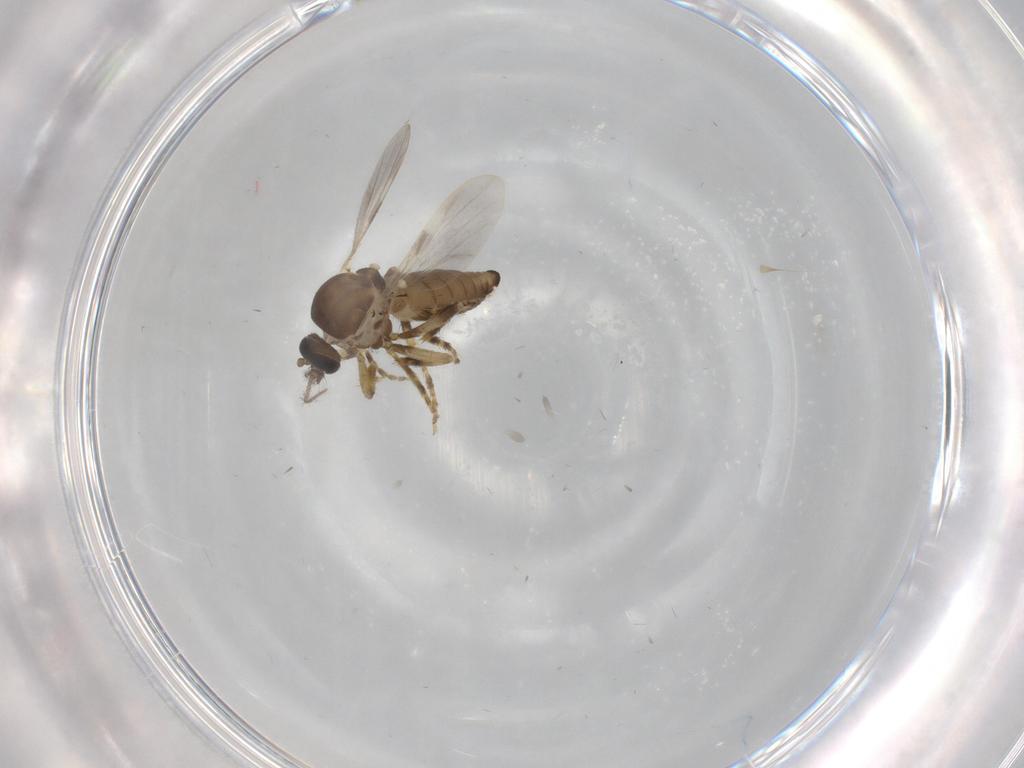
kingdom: Animalia
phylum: Arthropoda
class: Insecta
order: Diptera
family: Ceratopogonidae
